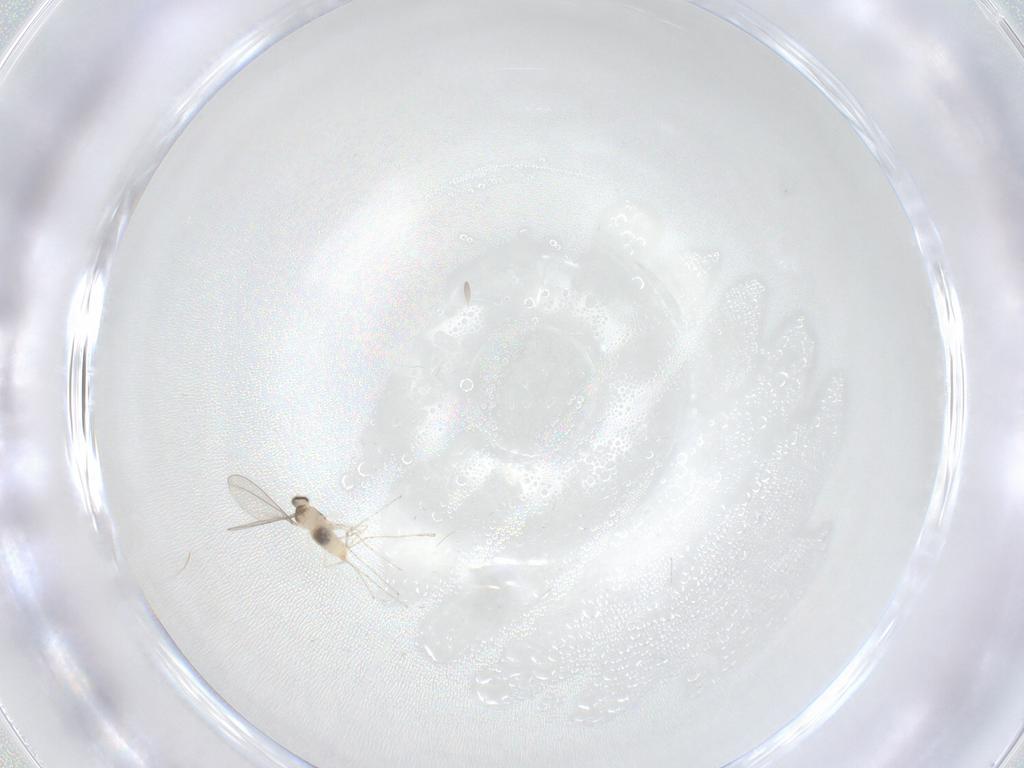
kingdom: Animalia
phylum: Arthropoda
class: Insecta
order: Diptera
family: Cecidomyiidae
